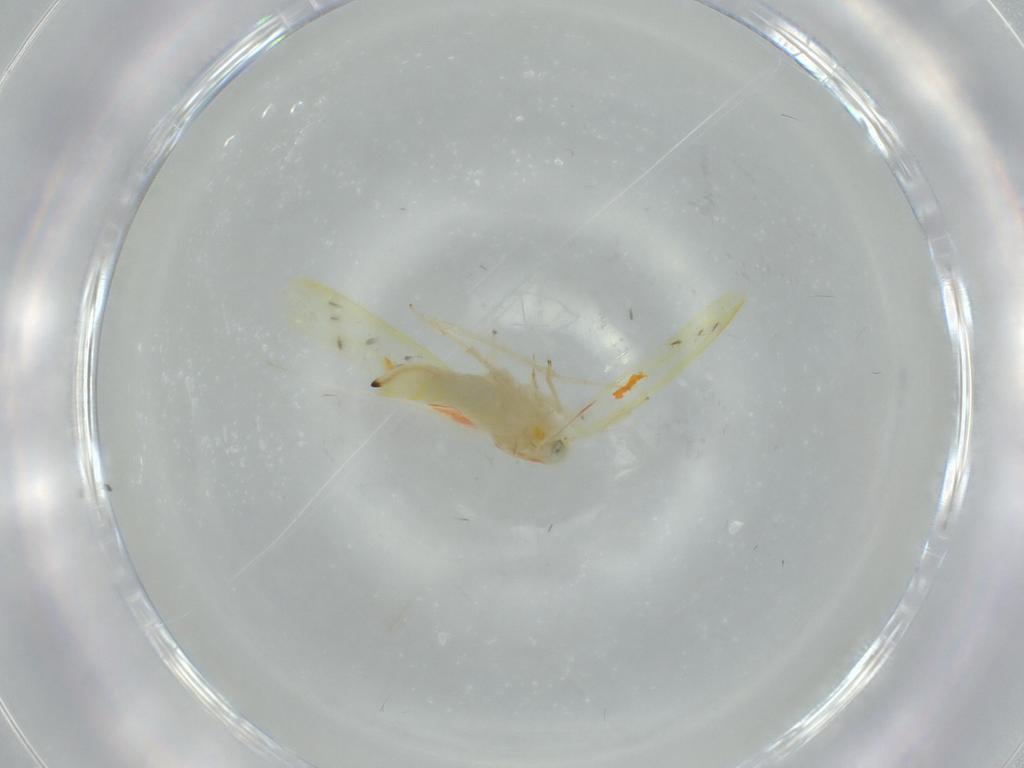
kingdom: Animalia
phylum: Arthropoda
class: Insecta
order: Hemiptera
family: Cicadellidae
